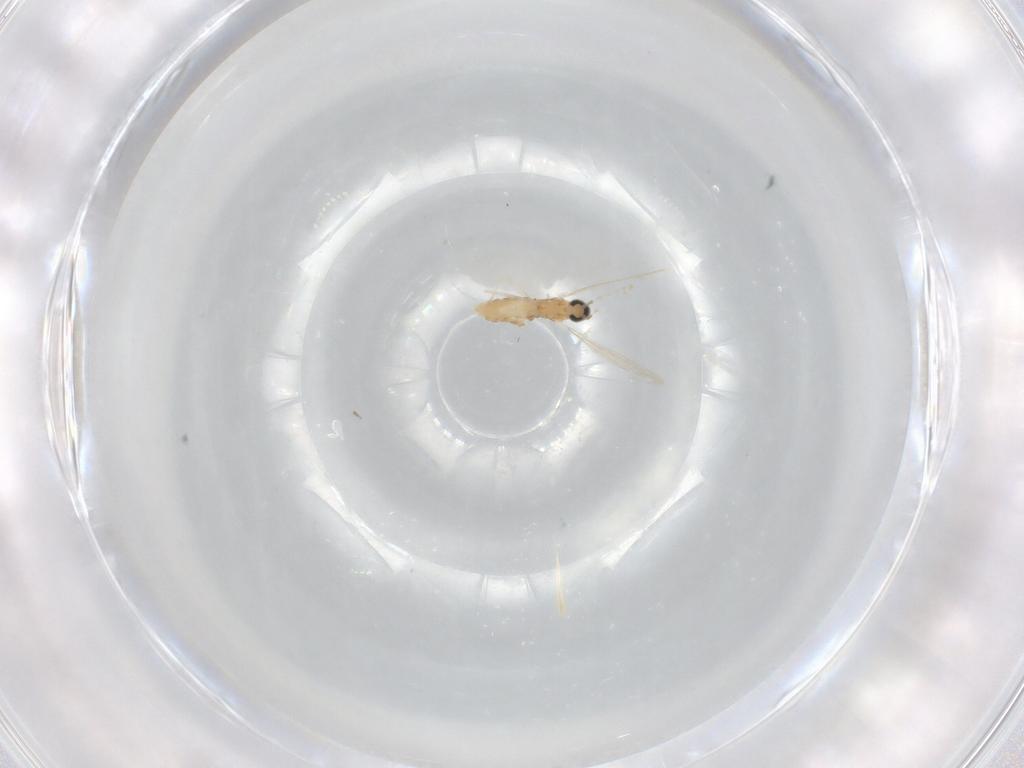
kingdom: Animalia
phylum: Arthropoda
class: Insecta
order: Diptera
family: Cecidomyiidae
